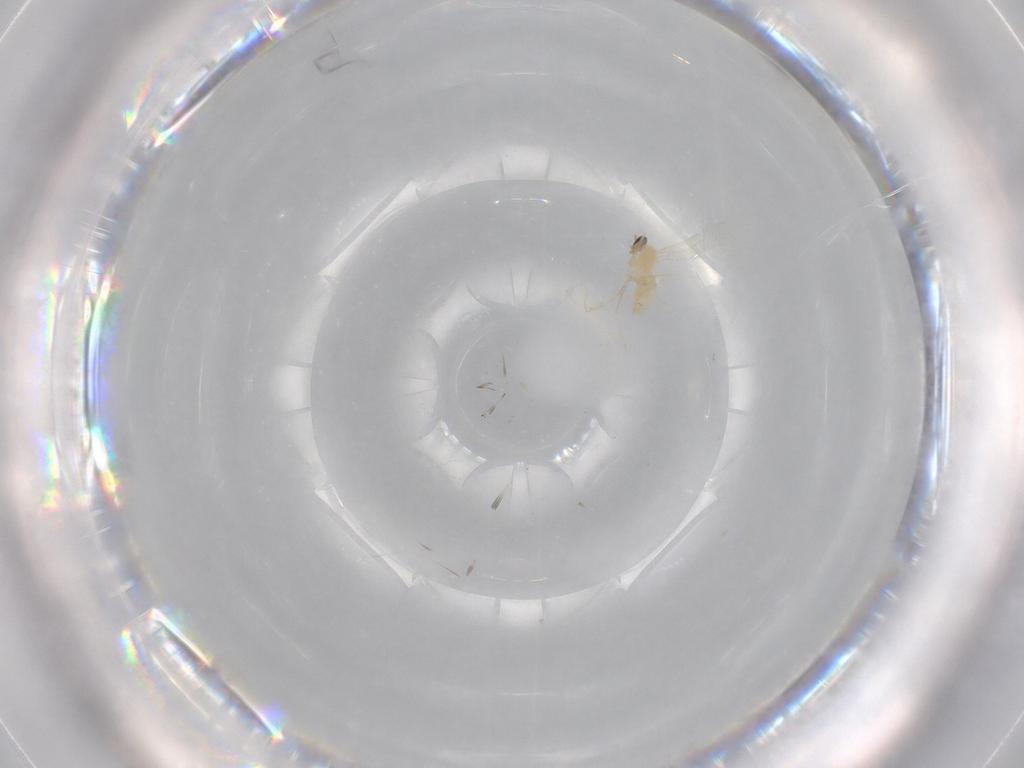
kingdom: Animalia
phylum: Arthropoda
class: Insecta
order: Diptera
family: Cecidomyiidae
